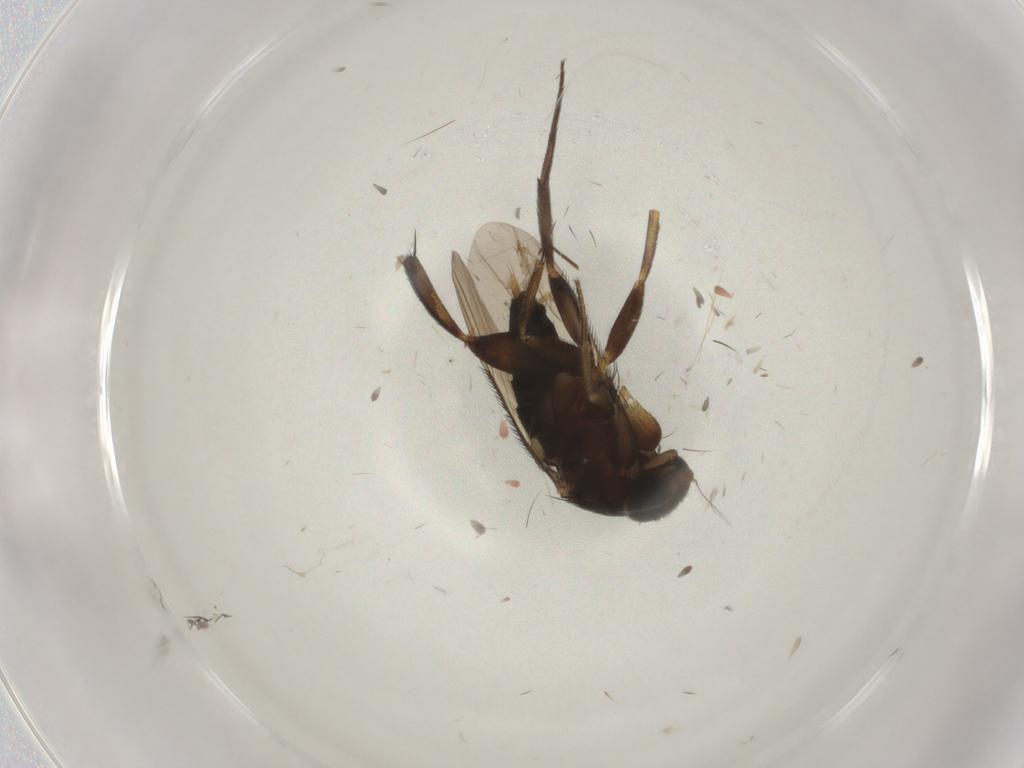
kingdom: Animalia
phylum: Arthropoda
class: Insecta
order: Diptera
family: Phoridae
